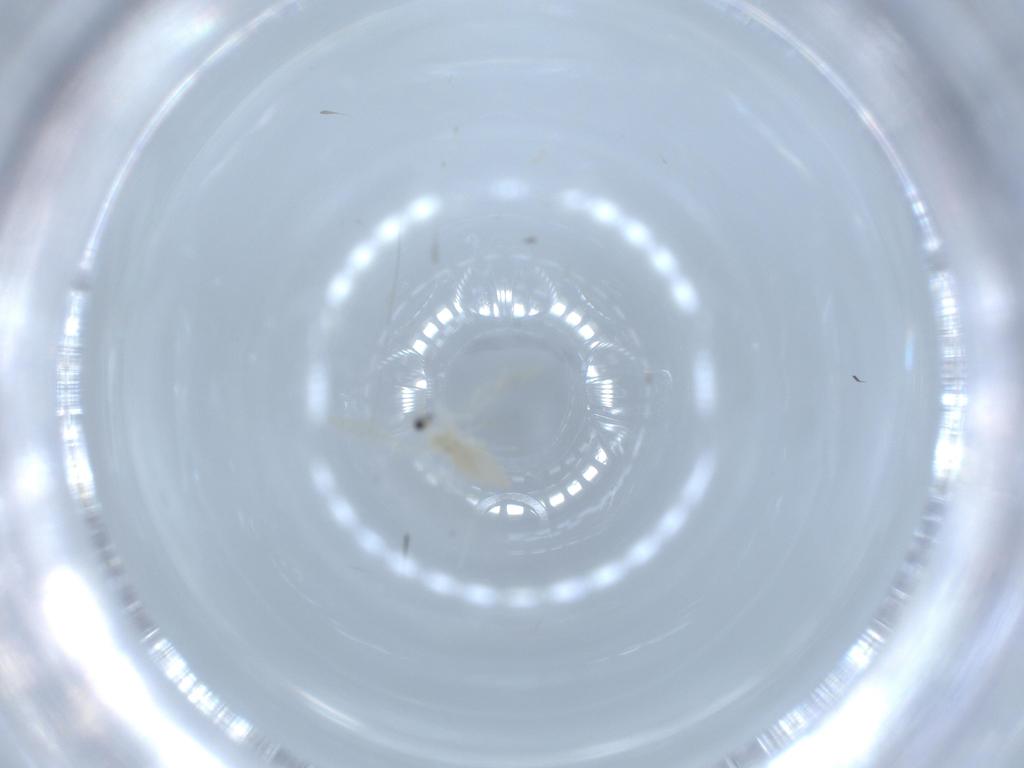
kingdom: Animalia
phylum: Arthropoda
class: Insecta
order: Diptera
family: Cecidomyiidae
